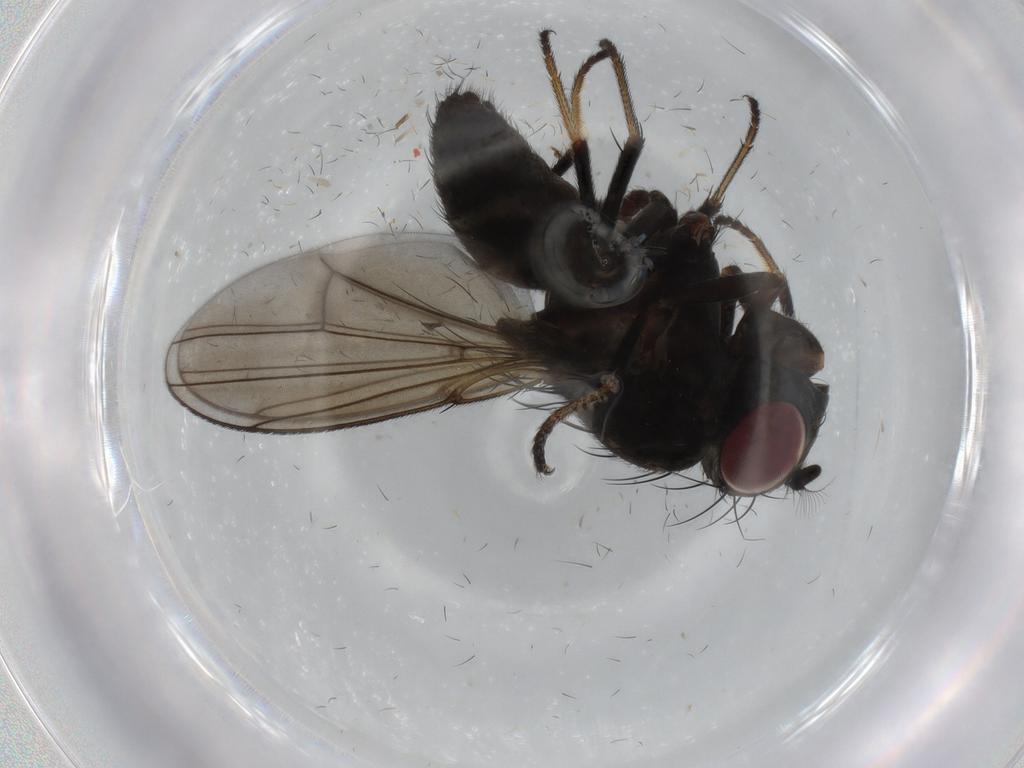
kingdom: Animalia
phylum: Arthropoda
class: Insecta
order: Diptera
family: Ephydridae
